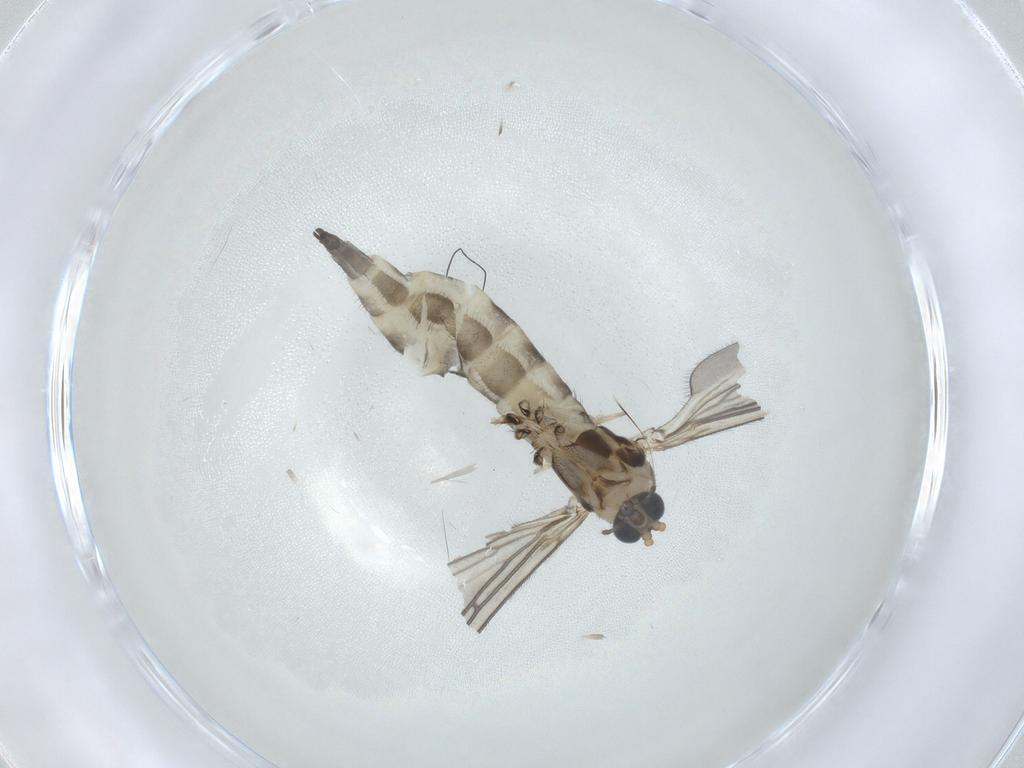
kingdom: Animalia
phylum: Arthropoda
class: Insecta
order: Diptera
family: Sciaridae
